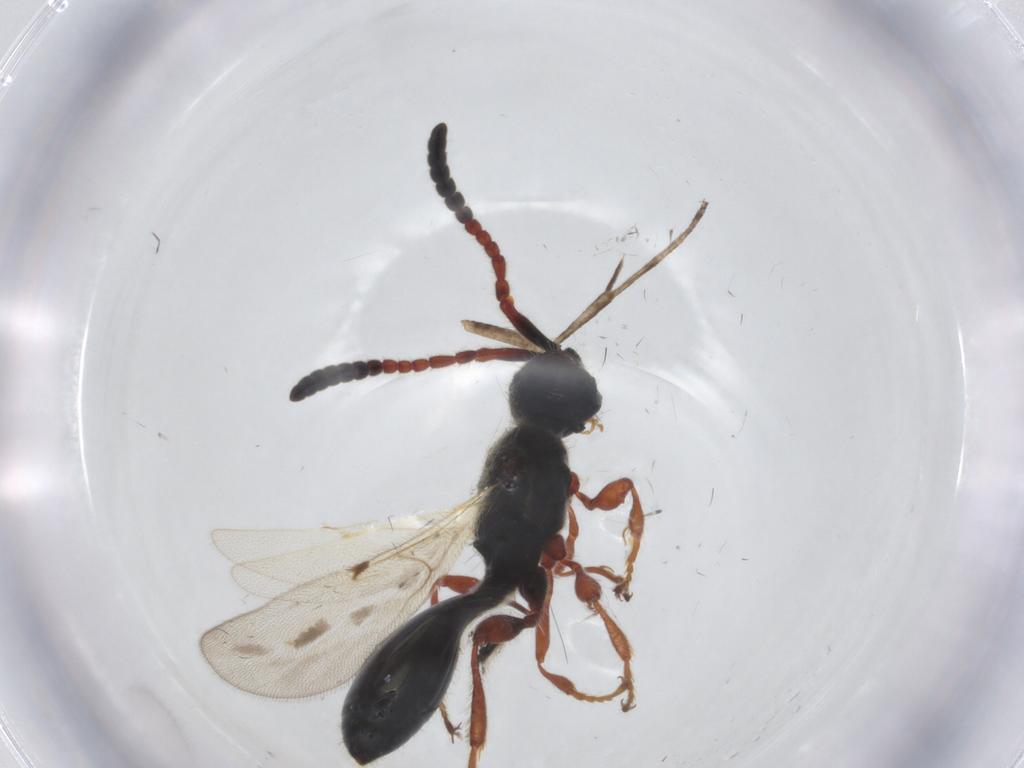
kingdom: Animalia
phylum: Arthropoda
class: Insecta
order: Hymenoptera
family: Diapriidae
